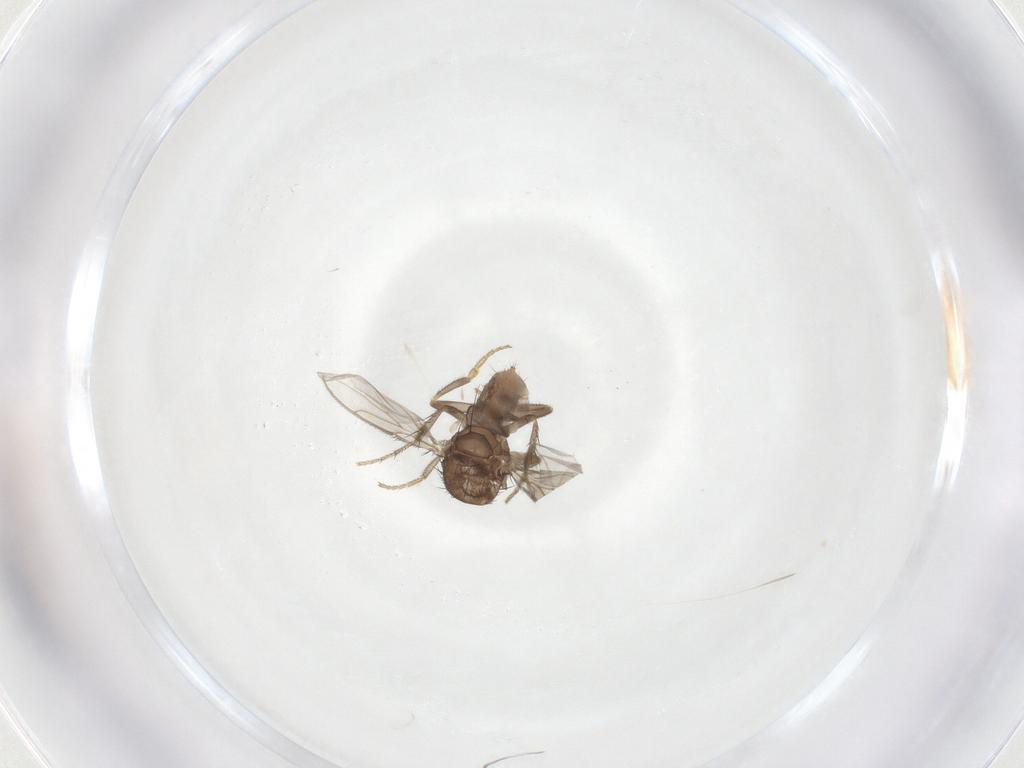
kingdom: Animalia
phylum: Arthropoda
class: Insecta
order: Diptera
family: Sphaeroceridae
